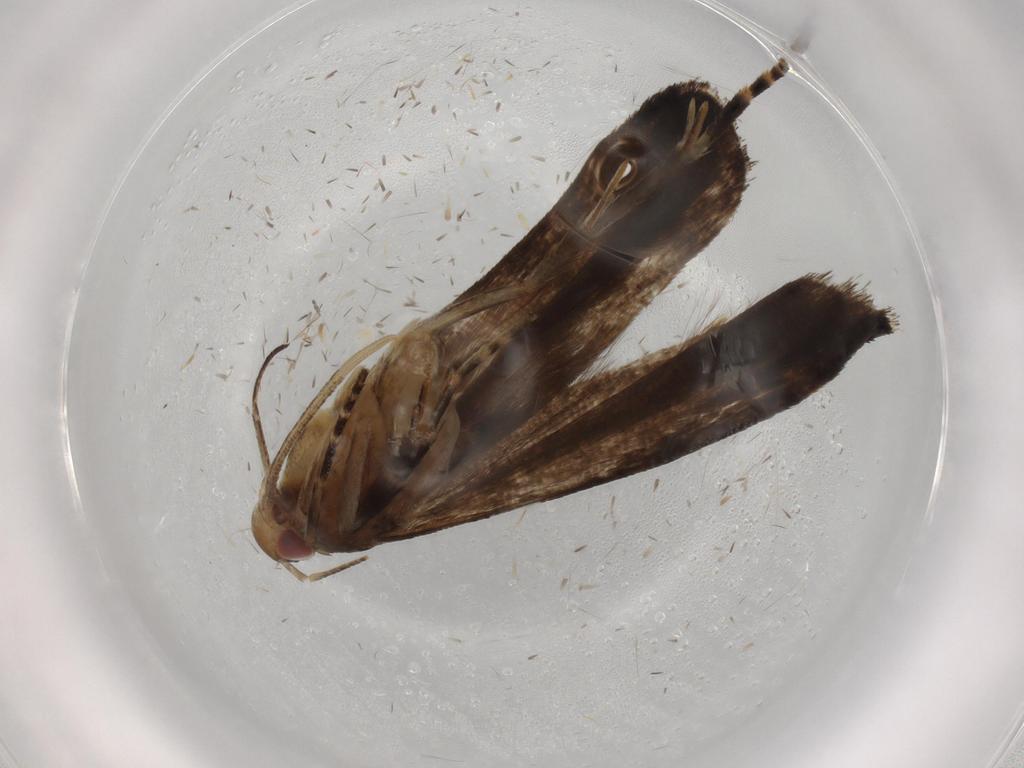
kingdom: Animalia
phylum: Arthropoda
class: Insecta
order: Lepidoptera
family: Gelechiidae
